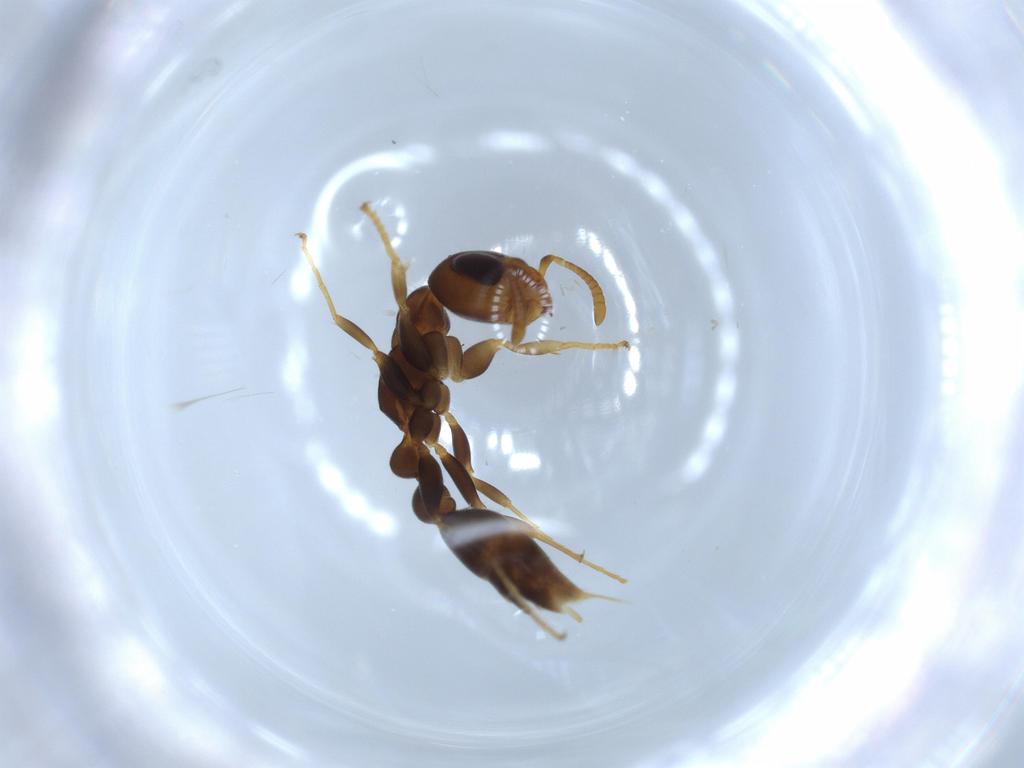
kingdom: Animalia
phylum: Arthropoda
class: Insecta
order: Hymenoptera
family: Formicidae
